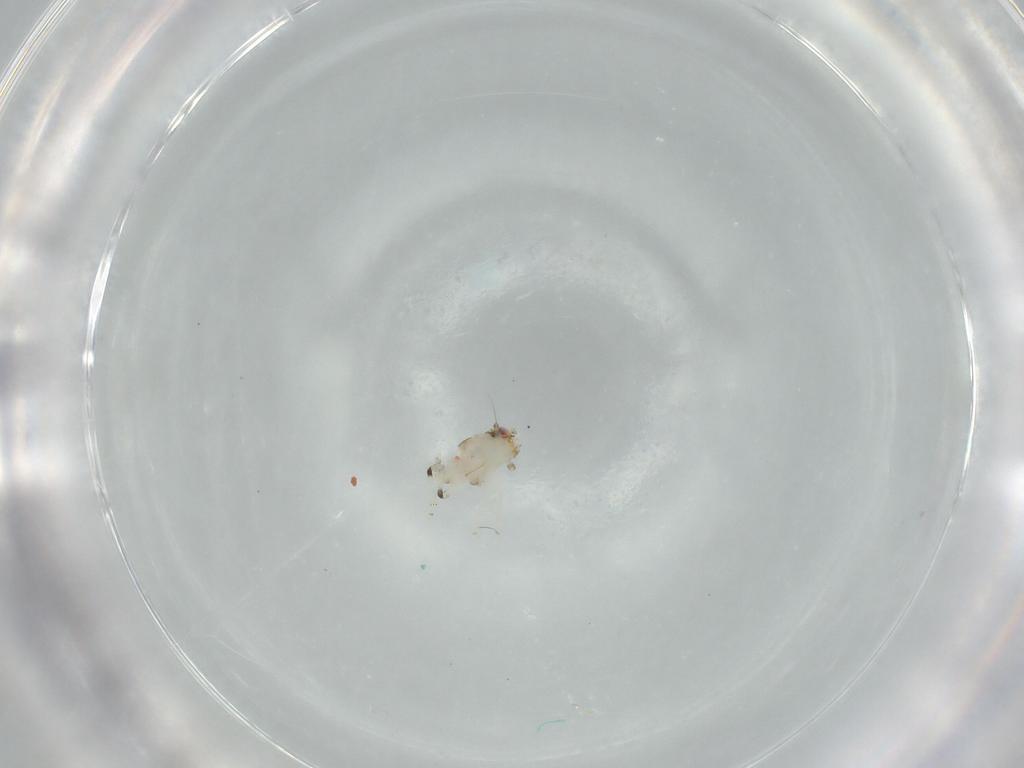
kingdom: Animalia
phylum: Arthropoda
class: Insecta
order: Hemiptera
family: Nogodinidae
